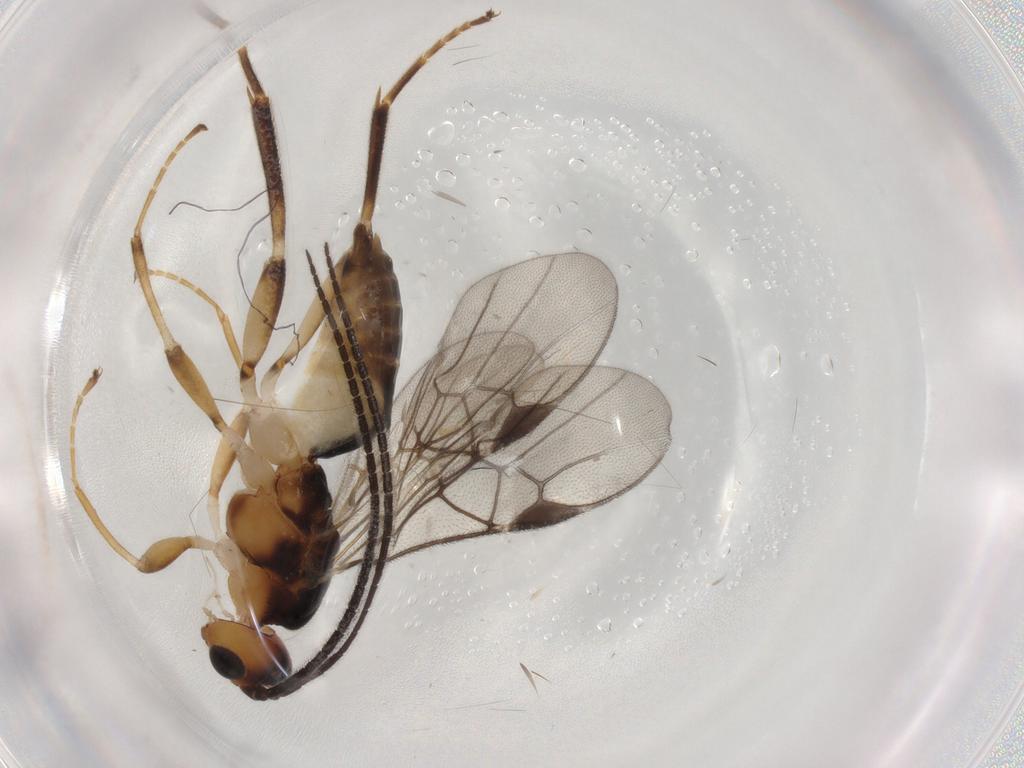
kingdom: Animalia
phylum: Arthropoda
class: Insecta
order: Hymenoptera
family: Braconidae
